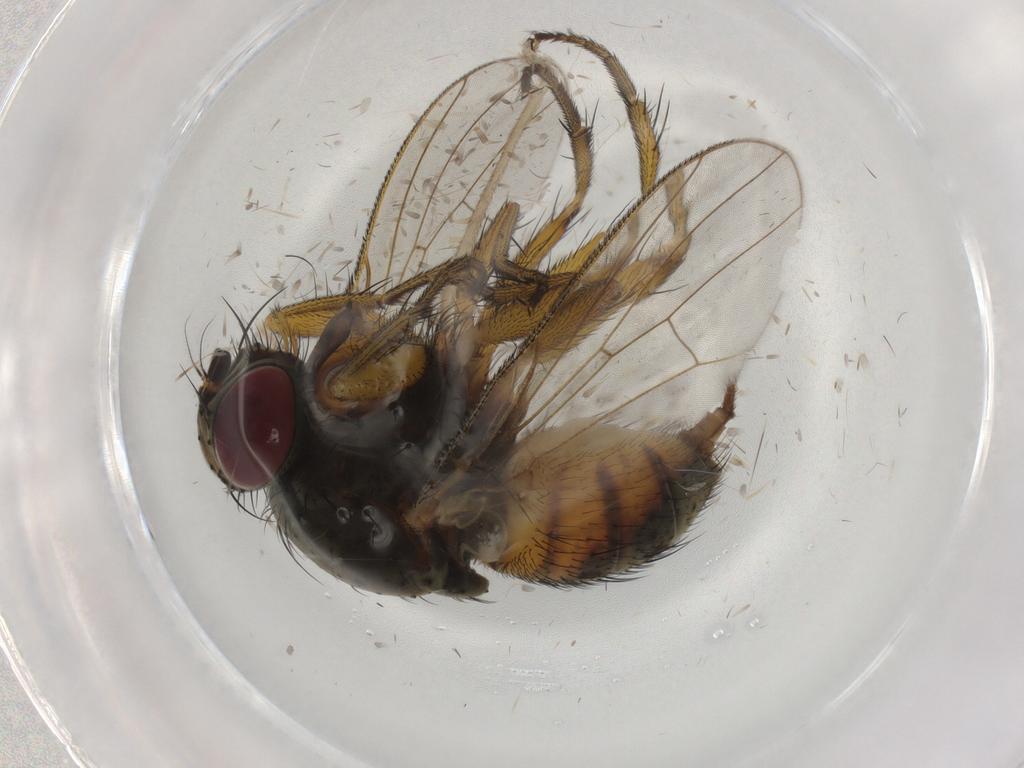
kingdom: Animalia
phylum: Arthropoda
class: Insecta
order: Diptera
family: Muscidae
